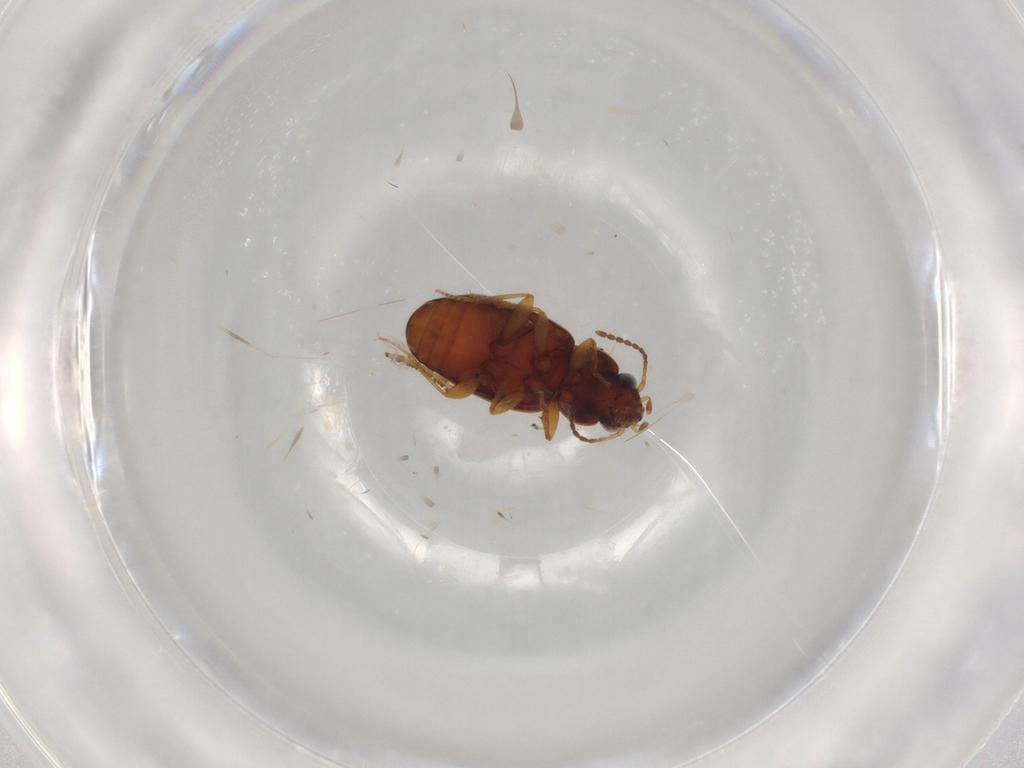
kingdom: Animalia
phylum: Arthropoda
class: Insecta
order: Coleoptera
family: Carabidae
